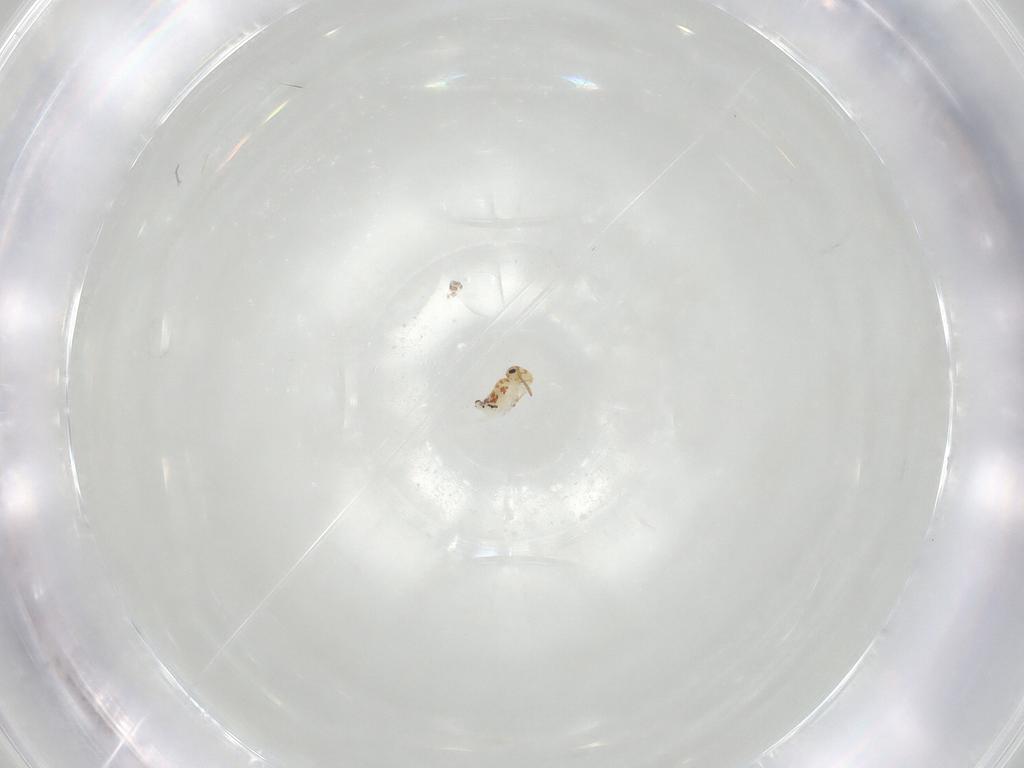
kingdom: Animalia
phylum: Arthropoda
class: Collembola
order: Symphypleona
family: Bourletiellidae
